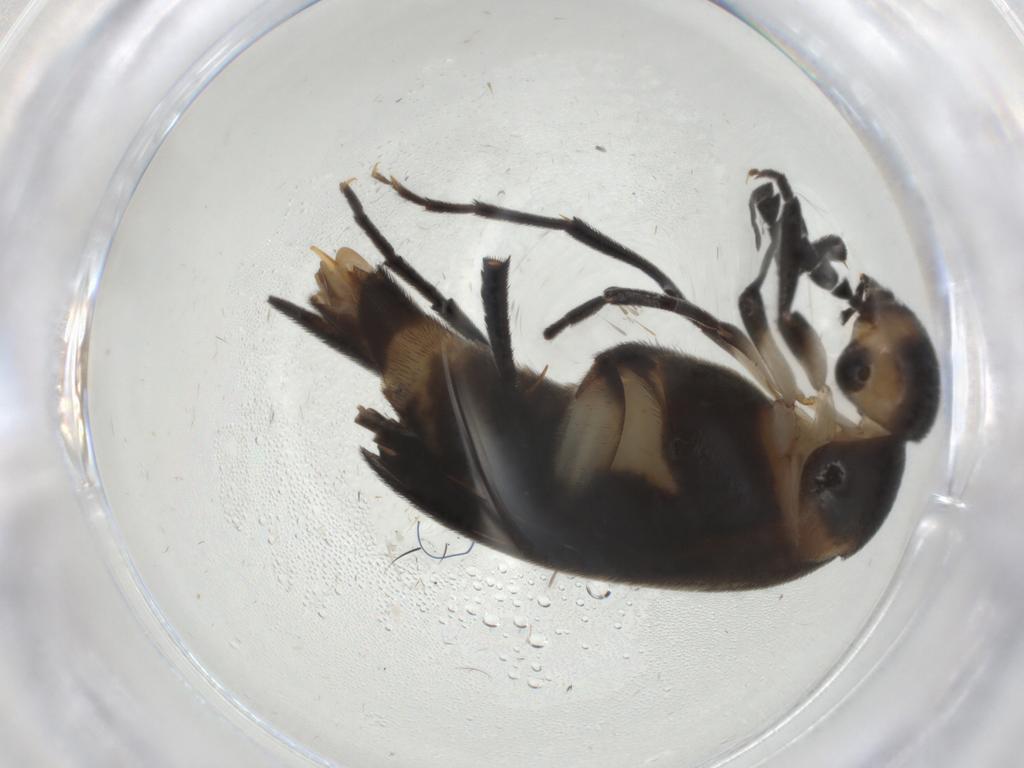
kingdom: Animalia
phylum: Arthropoda
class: Insecta
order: Coleoptera
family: Mordellidae
